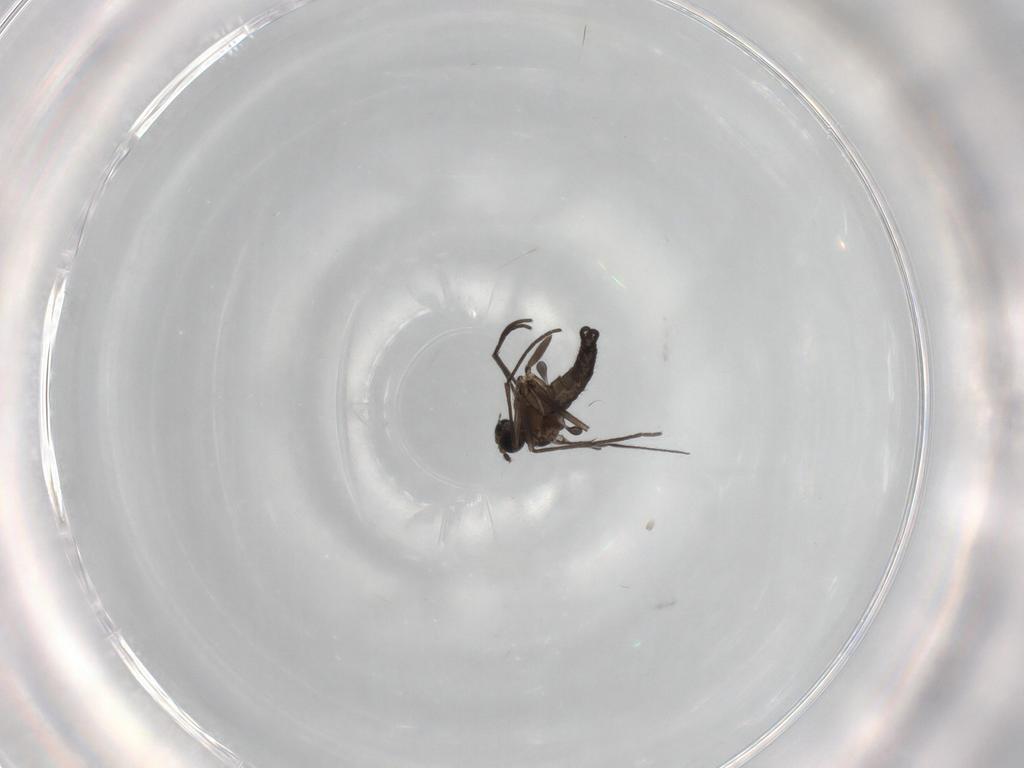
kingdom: Animalia
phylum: Arthropoda
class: Insecta
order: Diptera
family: Sciaridae
